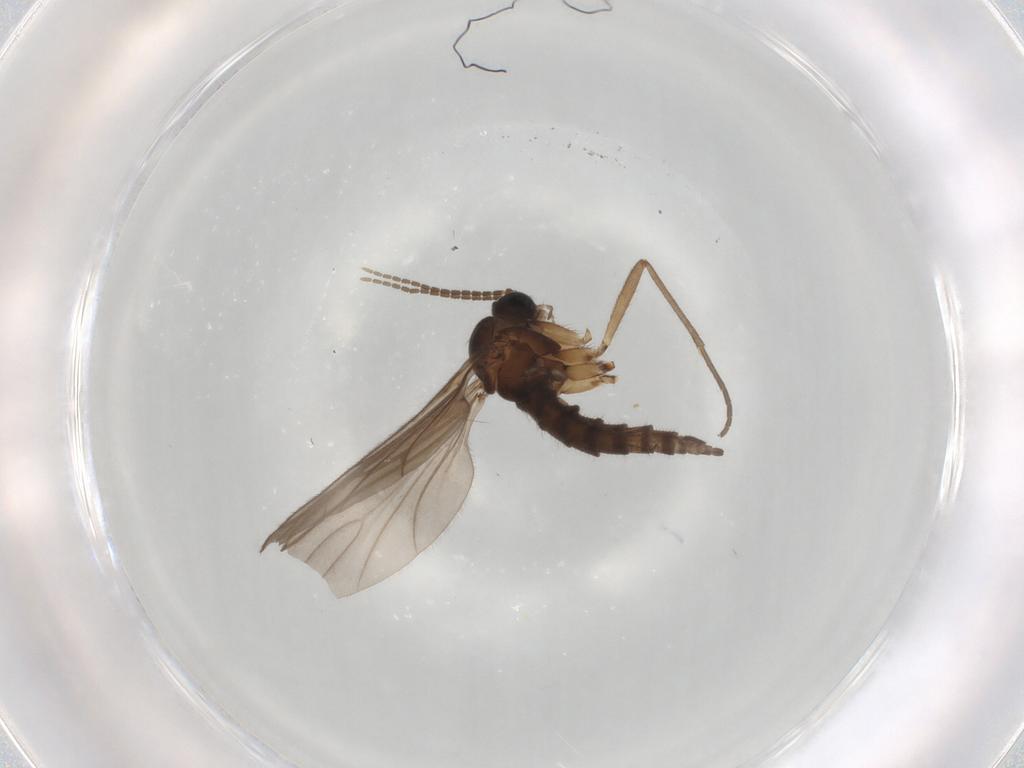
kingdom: Animalia
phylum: Arthropoda
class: Insecta
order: Diptera
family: Sciaridae
